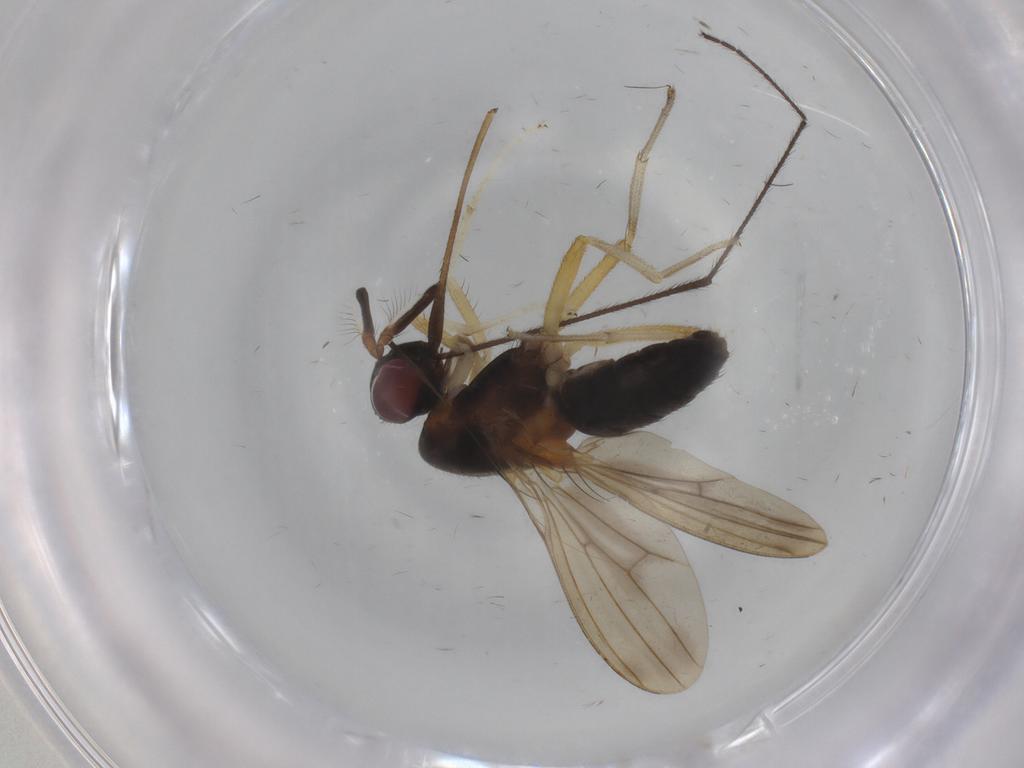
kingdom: Animalia
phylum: Arthropoda
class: Insecta
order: Diptera
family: Lauxaniidae
